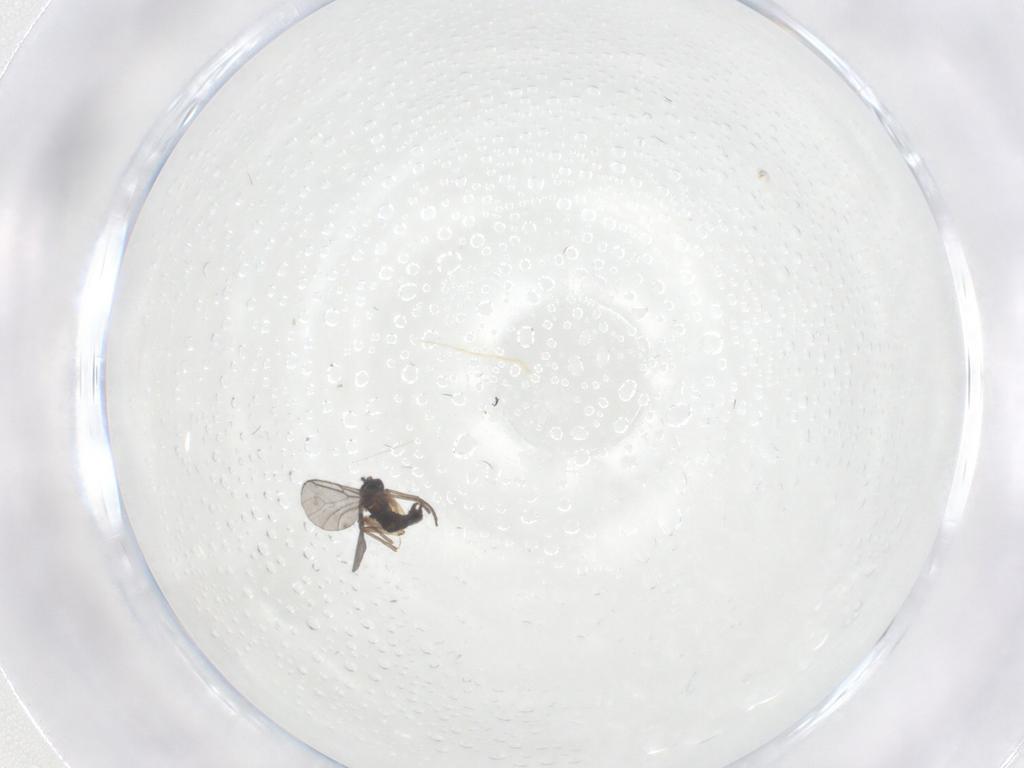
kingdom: Animalia
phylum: Arthropoda
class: Insecta
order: Diptera
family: Sciaridae
